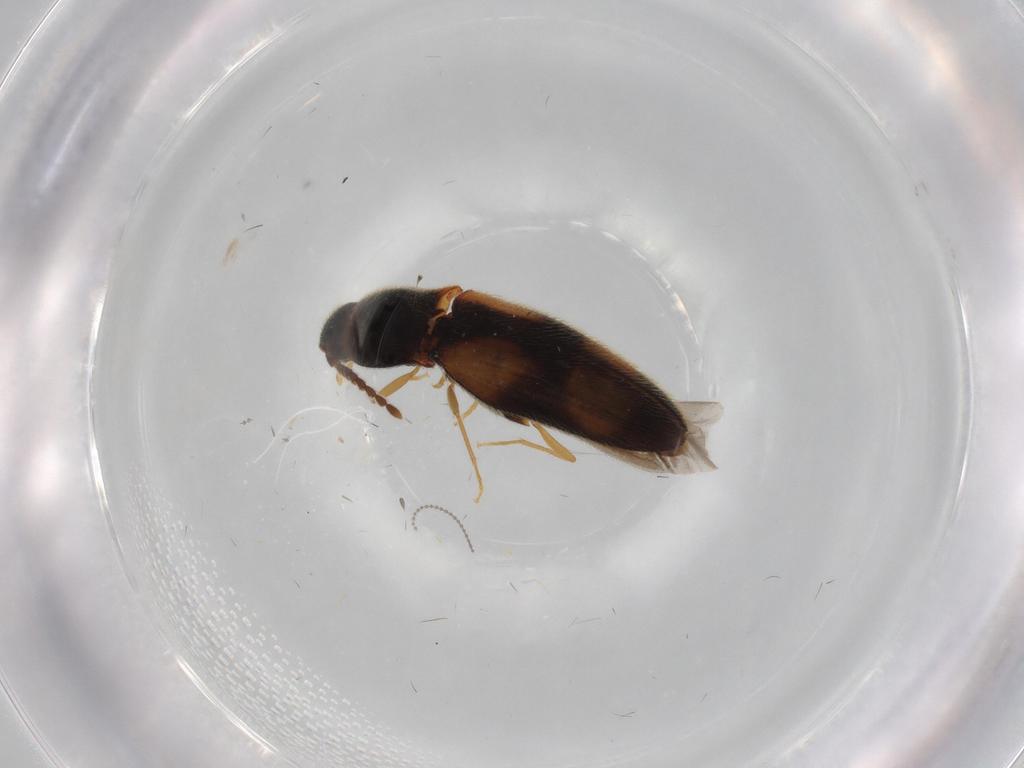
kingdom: Animalia
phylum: Arthropoda
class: Insecta
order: Coleoptera
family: Elateridae
